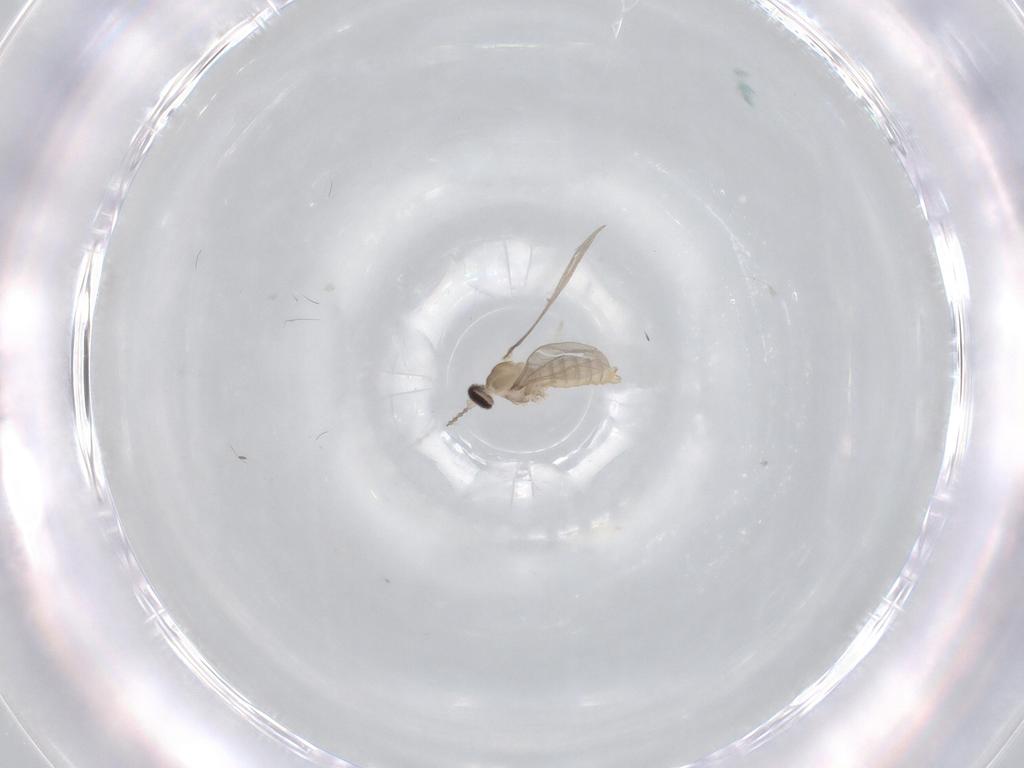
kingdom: Animalia
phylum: Arthropoda
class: Insecta
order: Diptera
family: Cecidomyiidae
